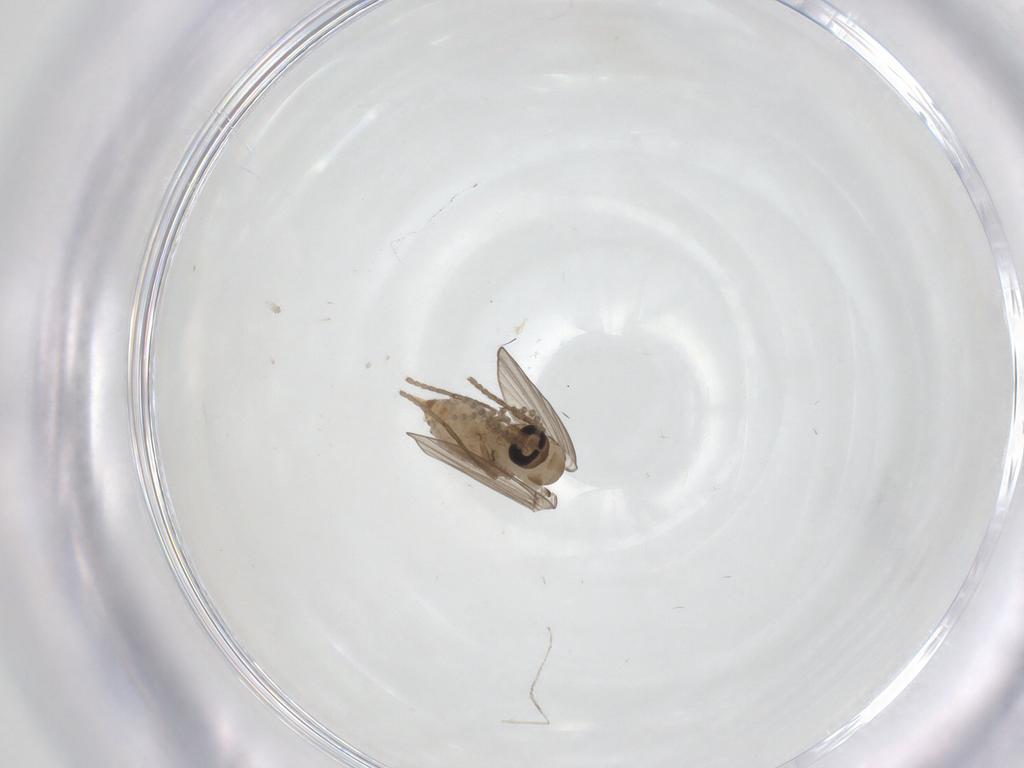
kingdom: Animalia
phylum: Arthropoda
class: Insecta
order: Diptera
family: Psychodidae
